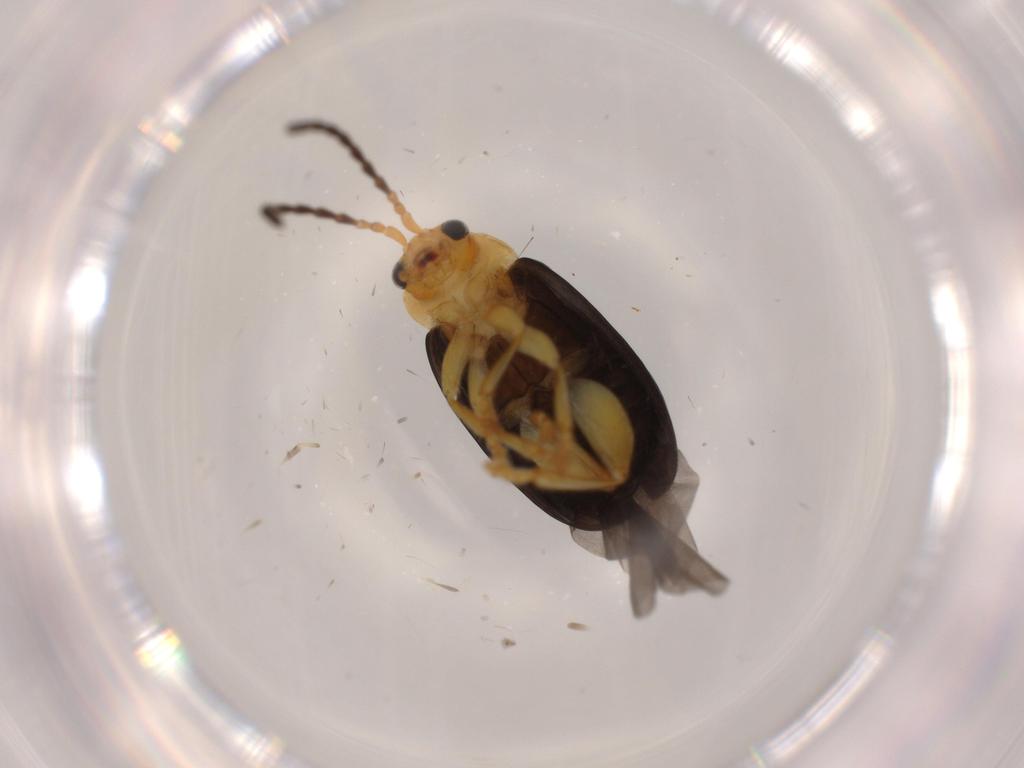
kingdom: Animalia
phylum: Arthropoda
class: Insecta
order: Coleoptera
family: Chrysomelidae
